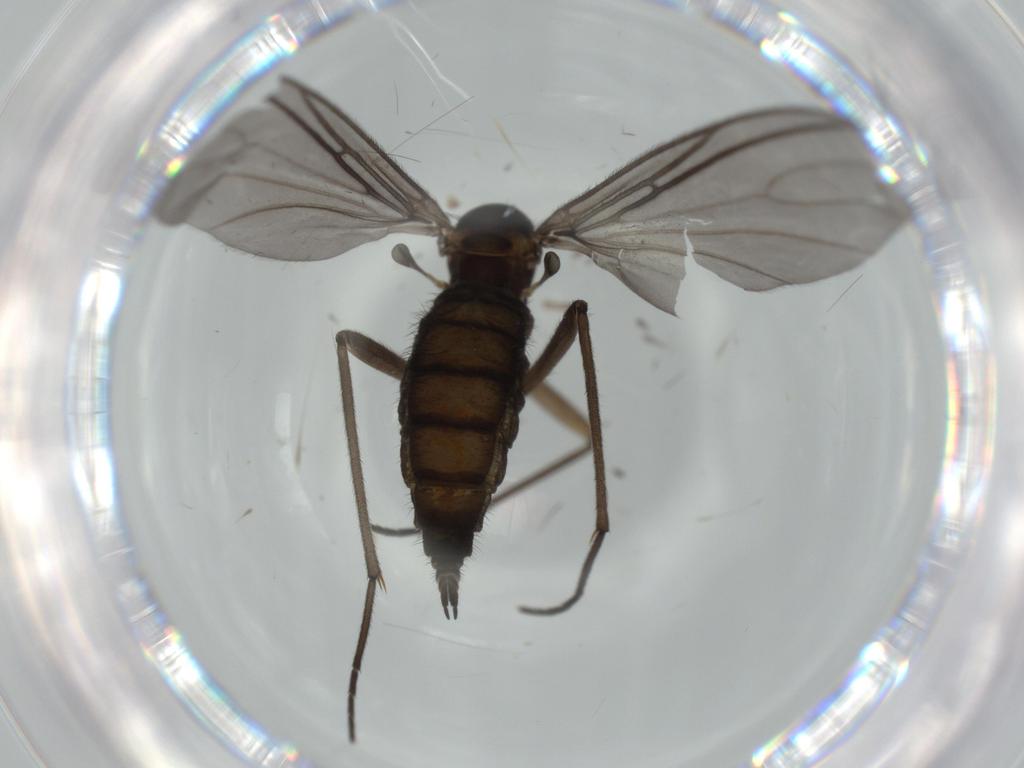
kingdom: Animalia
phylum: Arthropoda
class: Insecta
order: Diptera
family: Sciaridae
